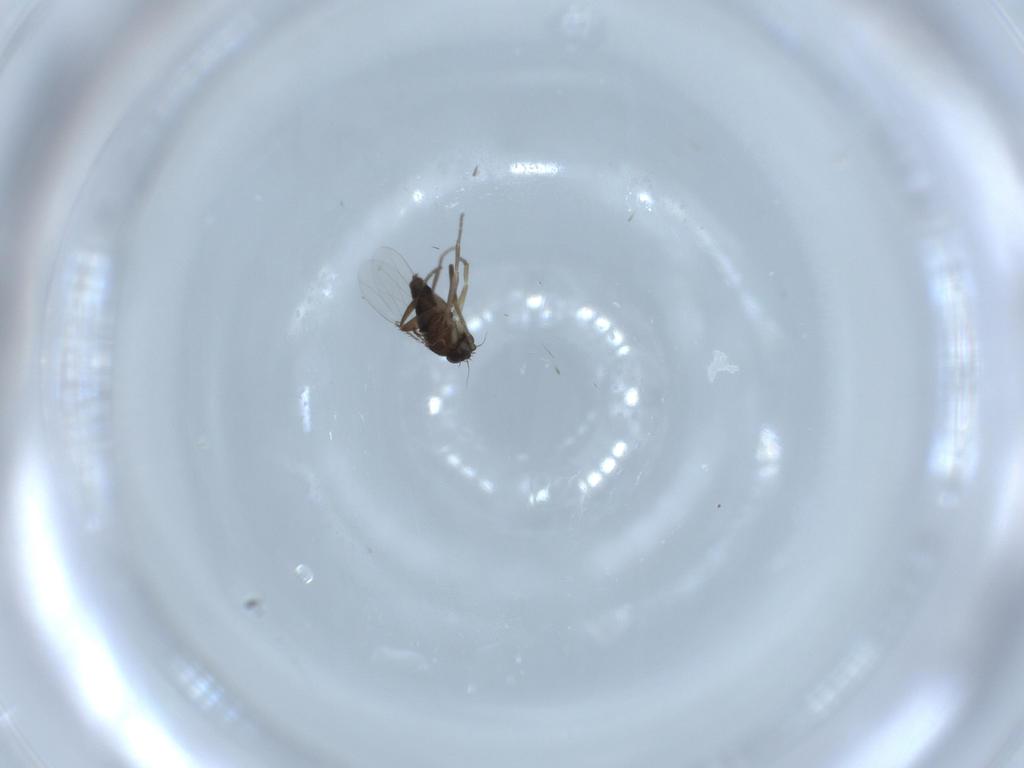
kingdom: Animalia
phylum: Arthropoda
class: Insecta
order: Diptera
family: Phoridae
